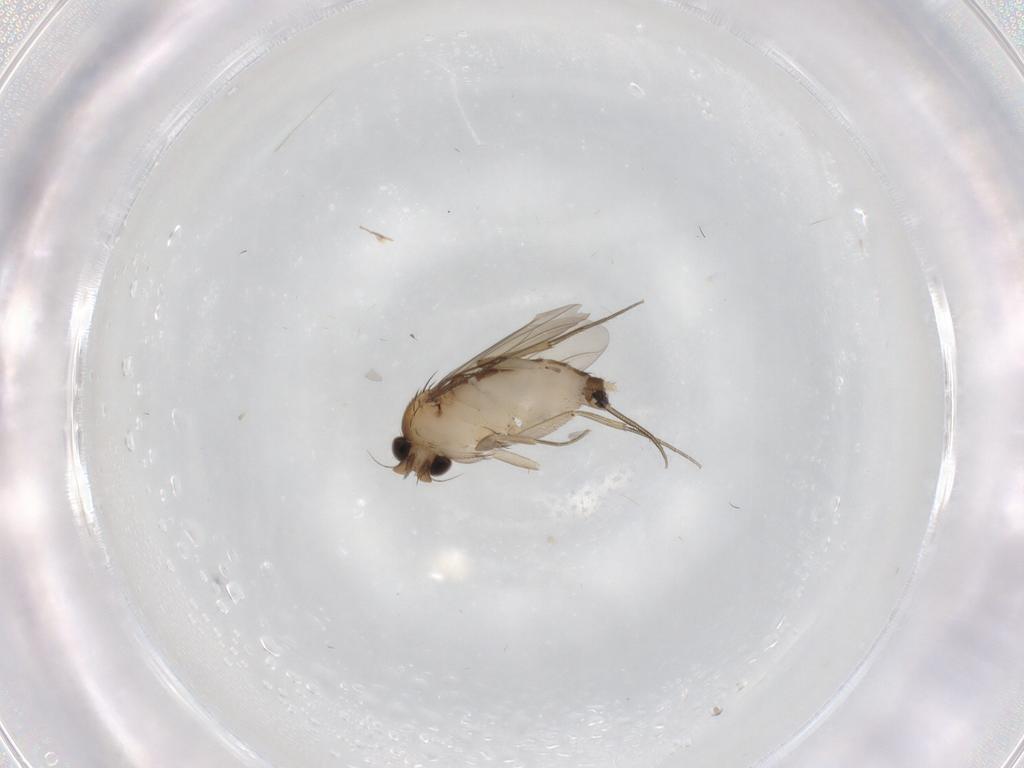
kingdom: Animalia
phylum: Arthropoda
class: Insecta
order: Diptera
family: Phoridae
